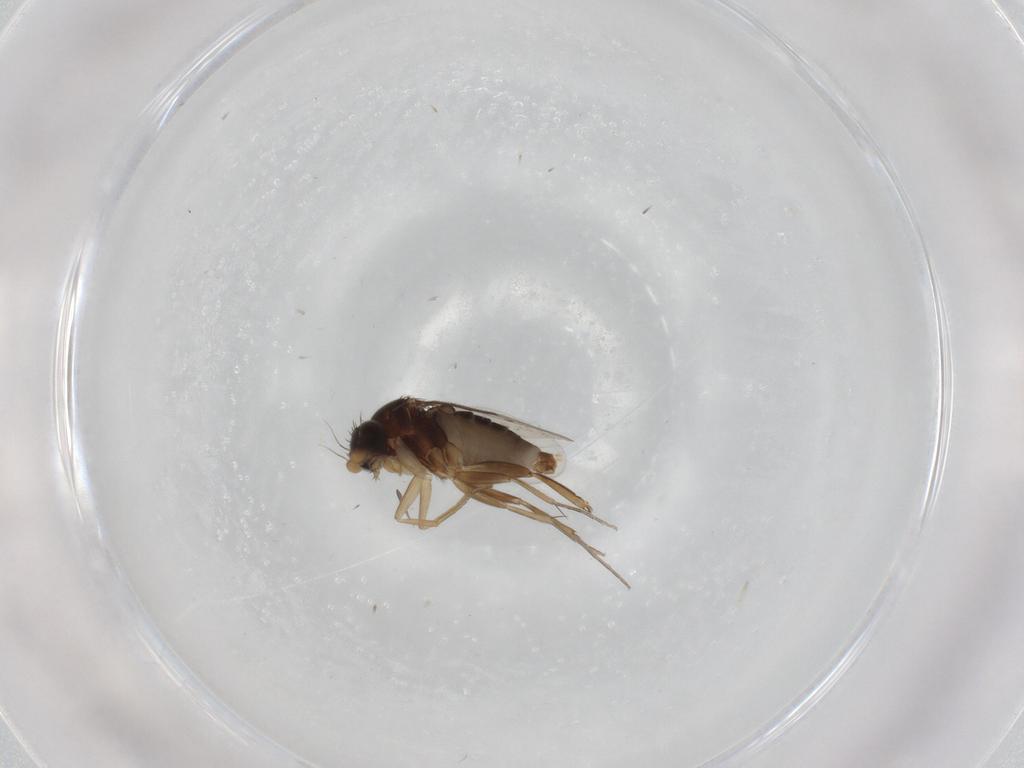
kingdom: Animalia
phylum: Arthropoda
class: Insecta
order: Diptera
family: Phoridae
